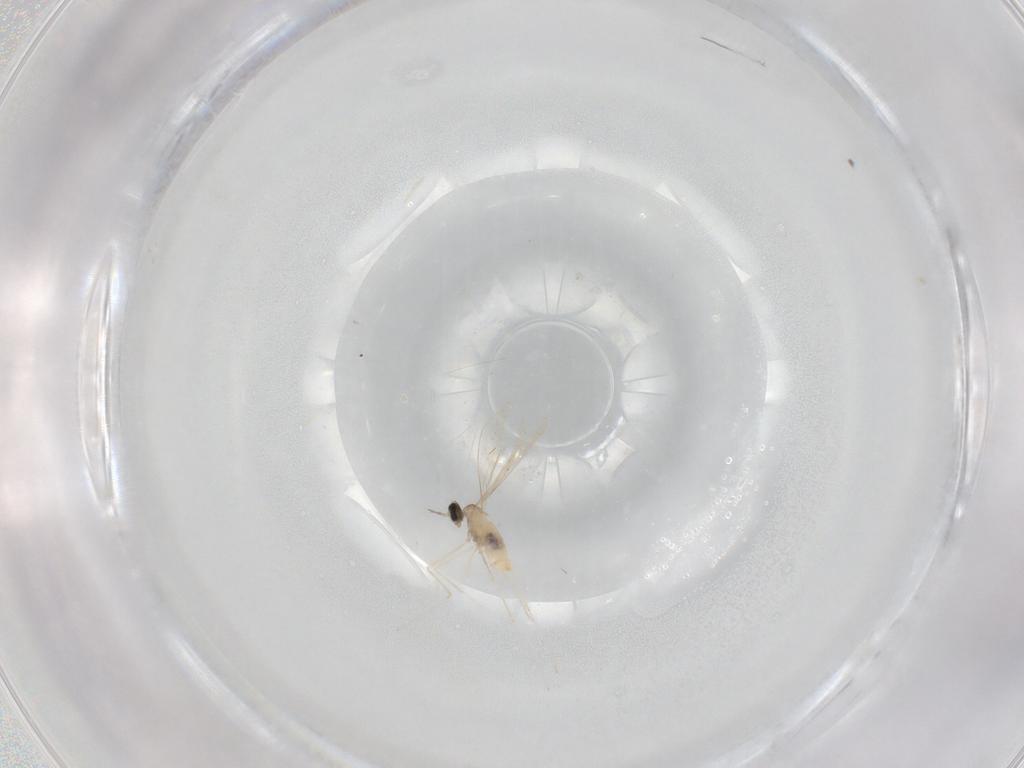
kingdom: Animalia
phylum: Arthropoda
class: Insecta
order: Diptera
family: Cecidomyiidae
